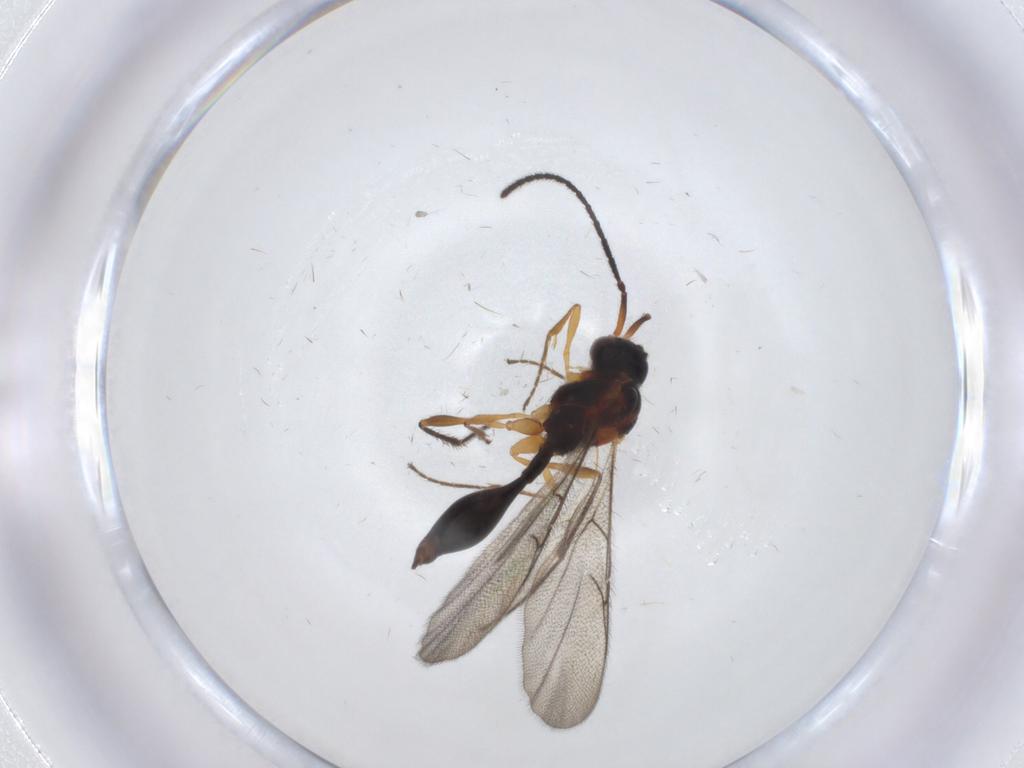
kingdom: Animalia
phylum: Arthropoda
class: Insecta
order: Hymenoptera
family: Diapriidae
